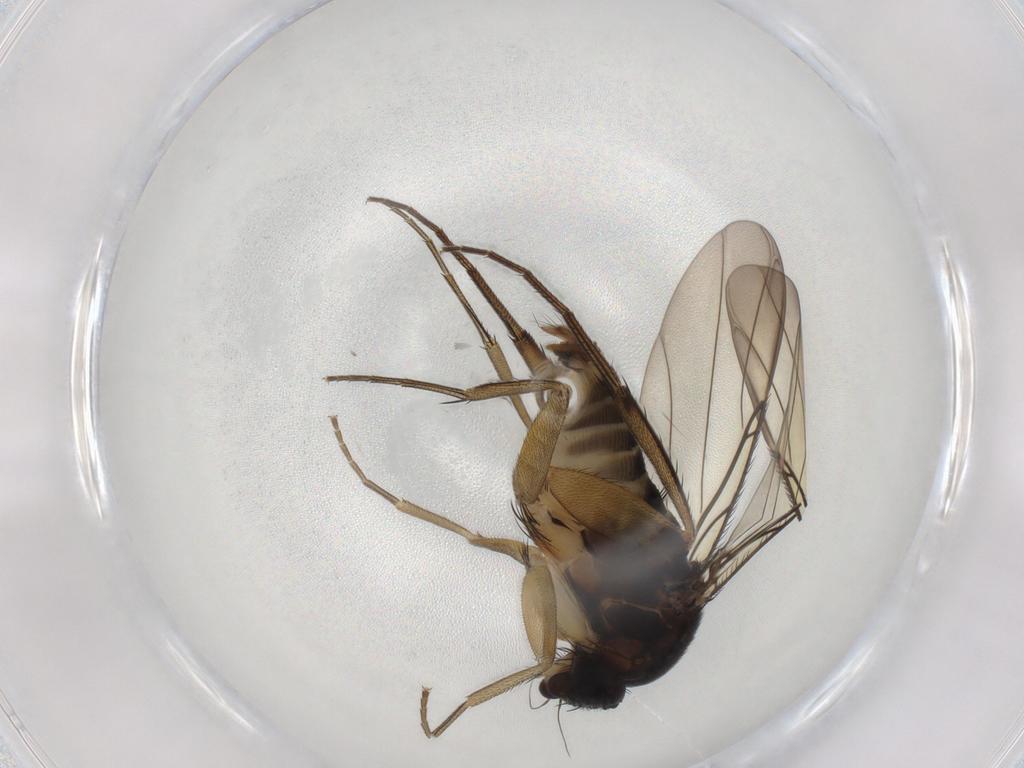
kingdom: Animalia
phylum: Arthropoda
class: Insecta
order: Diptera
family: Phoridae
